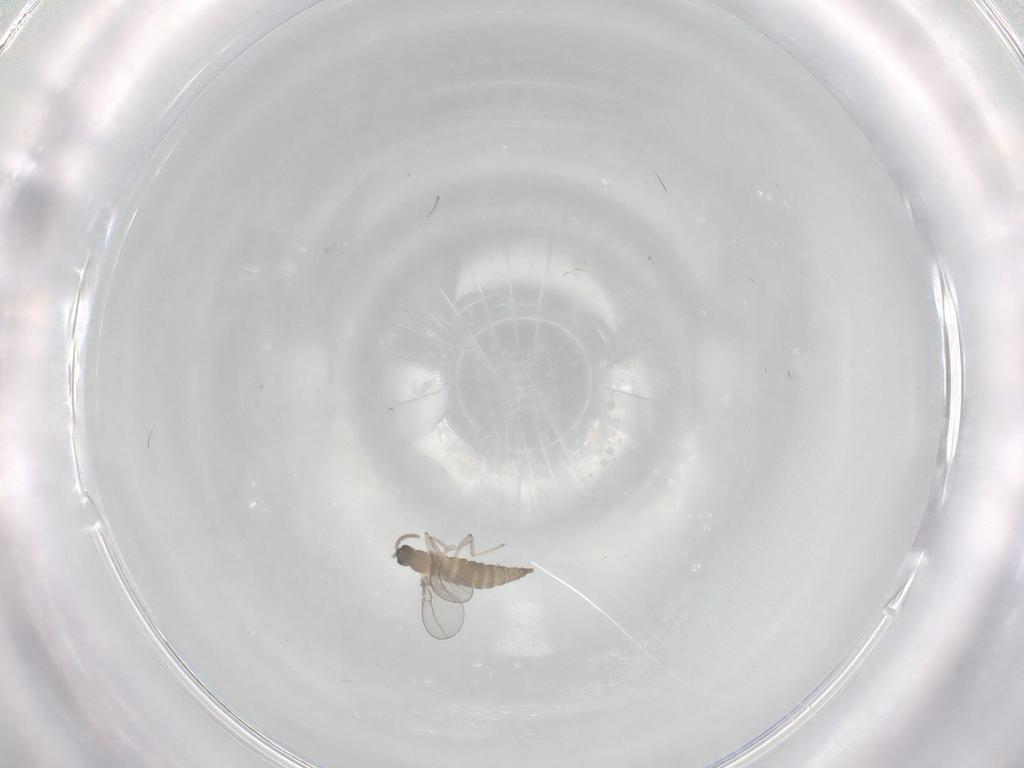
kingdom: Animalia
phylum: Arthropoda
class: Insecta
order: Diptera
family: Cecidomyiidae
